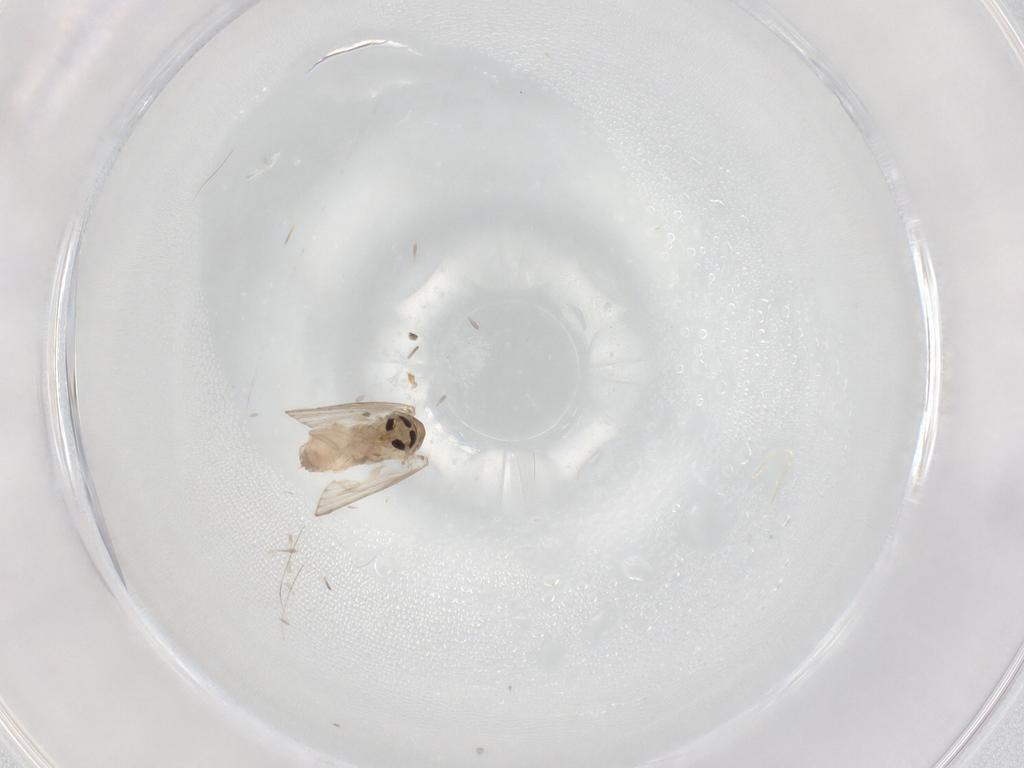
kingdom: Animalia
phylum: Arthropoda
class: Insecta
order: Diptera
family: Psychodidae
